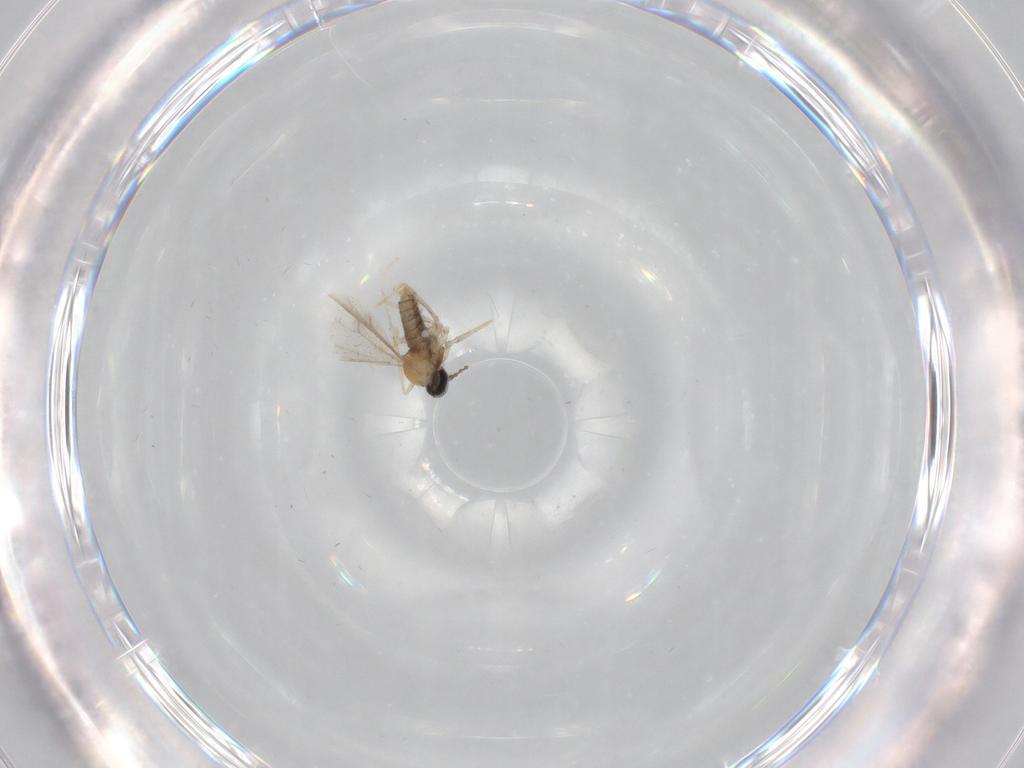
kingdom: Animalia
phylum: Arthropoda
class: Insecta
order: Diptera
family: Cecidomyiidae
